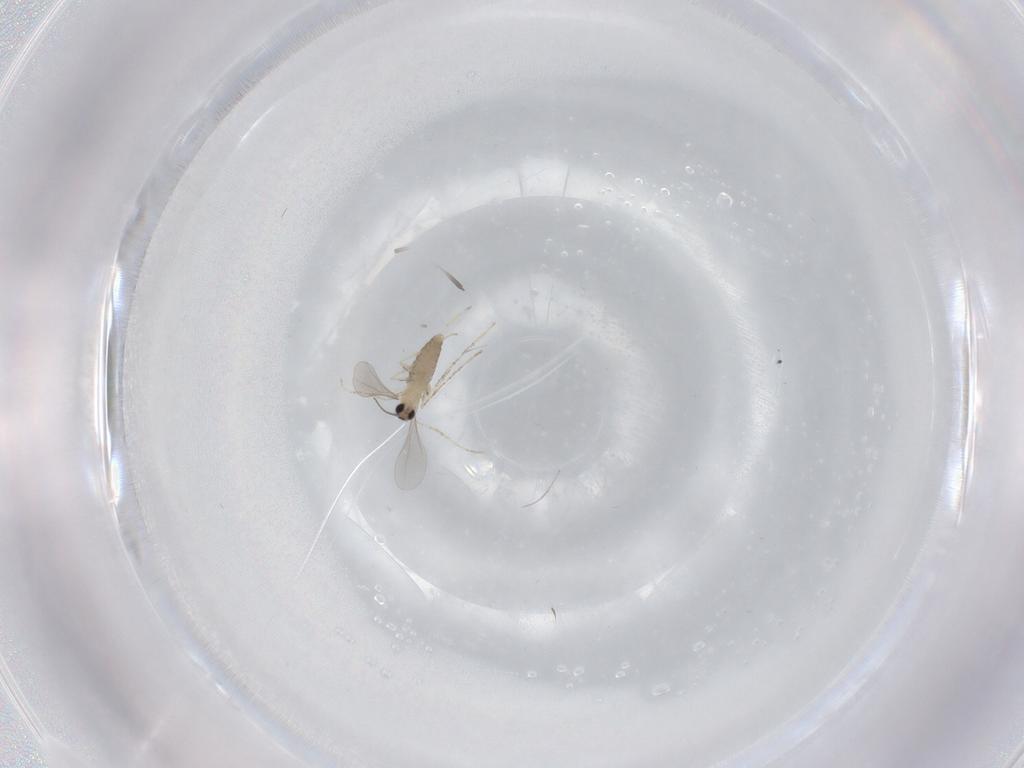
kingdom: Animalia
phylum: Arthropoda
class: Insecta
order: Diptera
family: Cecidomyiidae
